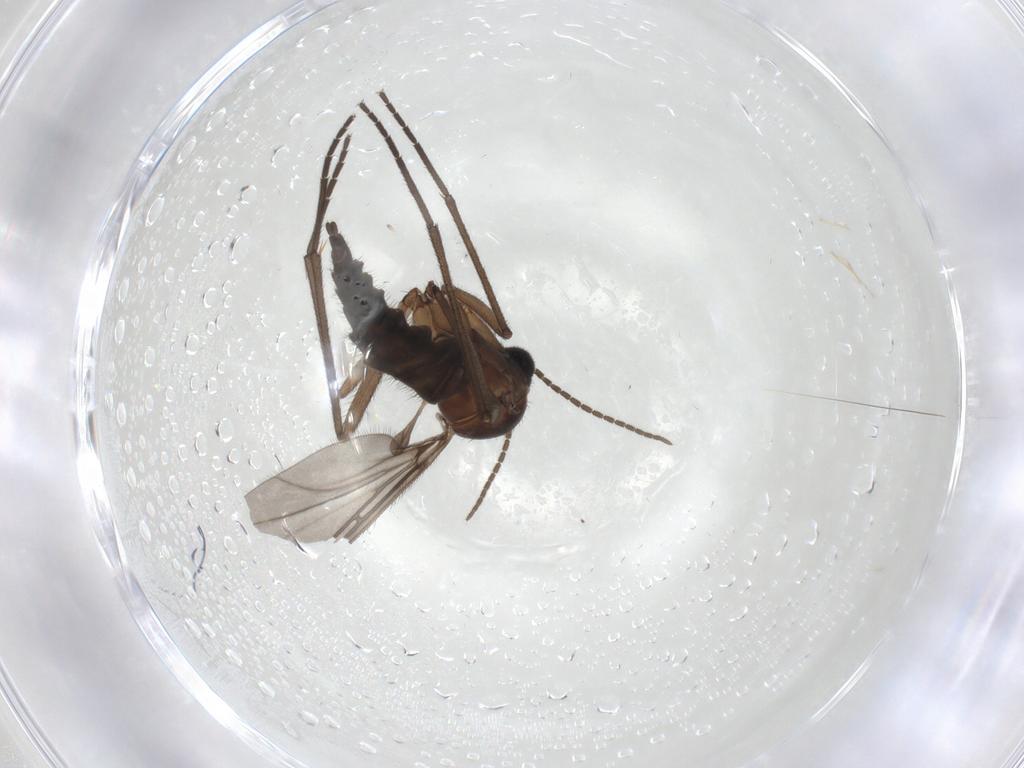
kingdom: Animalia
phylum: Arthropoda
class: Insecta
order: Diptera
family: Sciaridae
